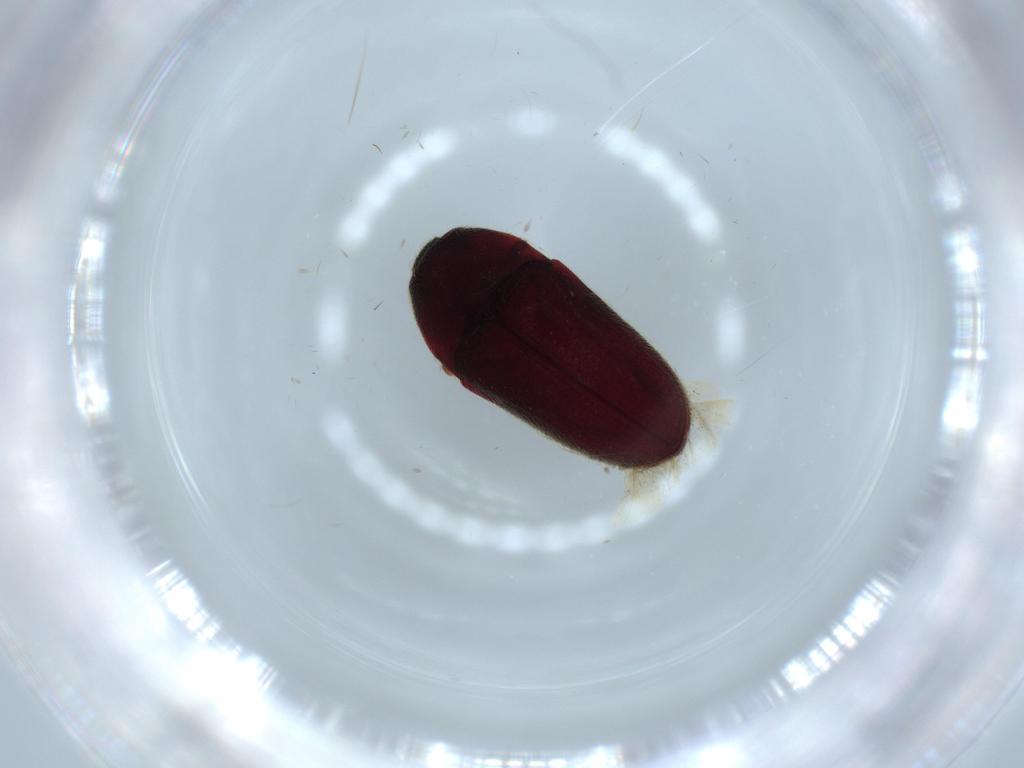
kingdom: Animalia
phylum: Arthropoda
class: Insecta
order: Coleoptera
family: Throscidae
